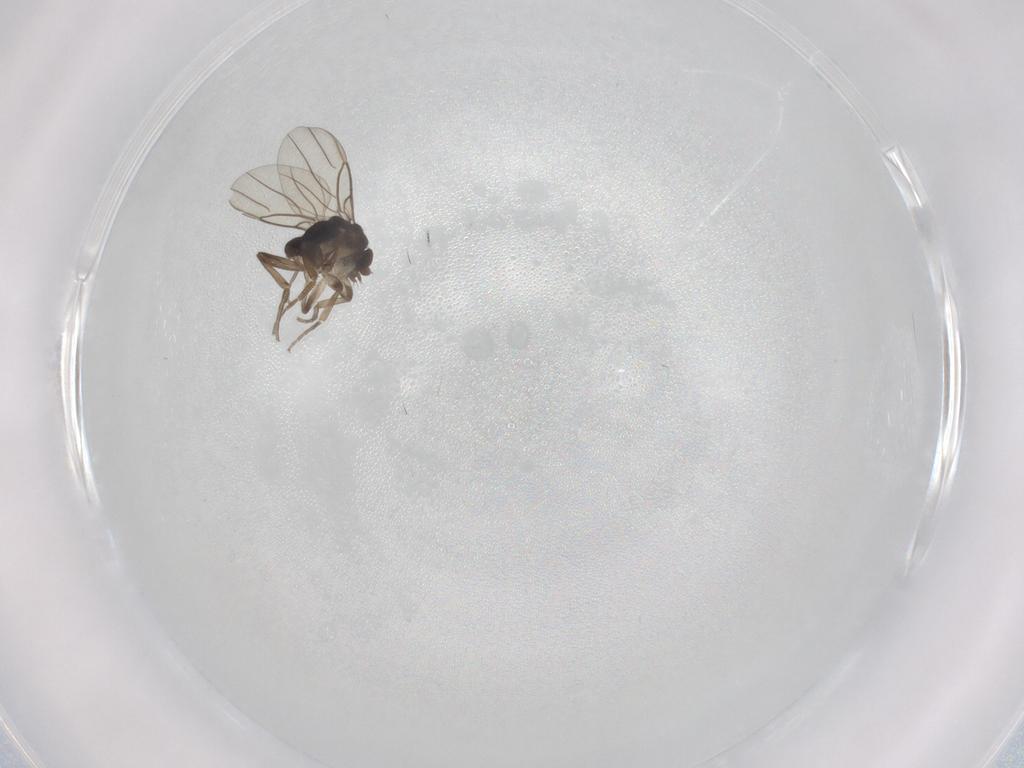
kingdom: Animalia
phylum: Arthropoda
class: Insecta
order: Diptera
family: Phoridae
